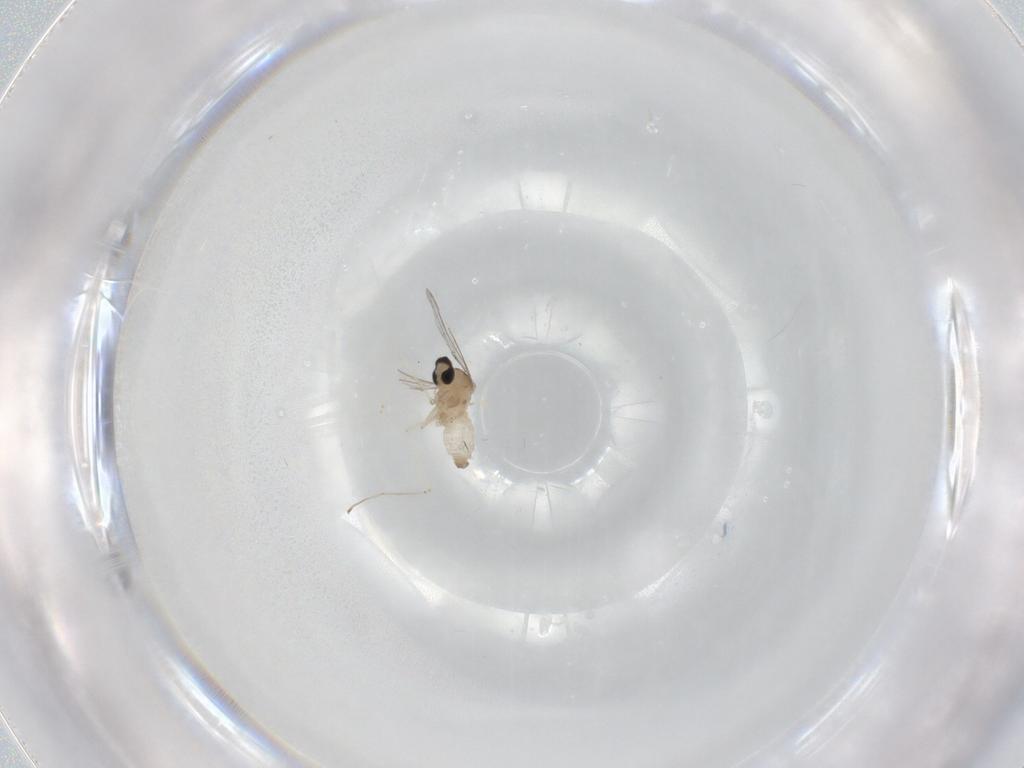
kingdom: Animalia
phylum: Arthropoda
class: Insecta
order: Diptera
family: Cecidomyiidae
